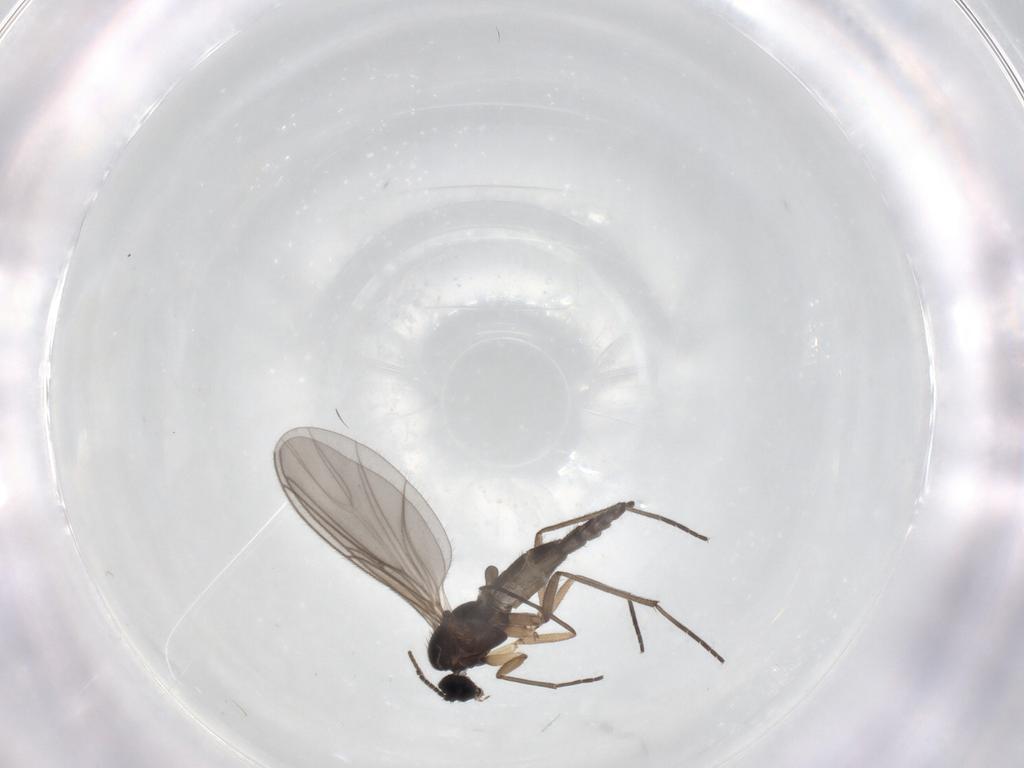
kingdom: Animalia
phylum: Arthropoda
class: Insecta
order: Diptera
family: Sciaridae
